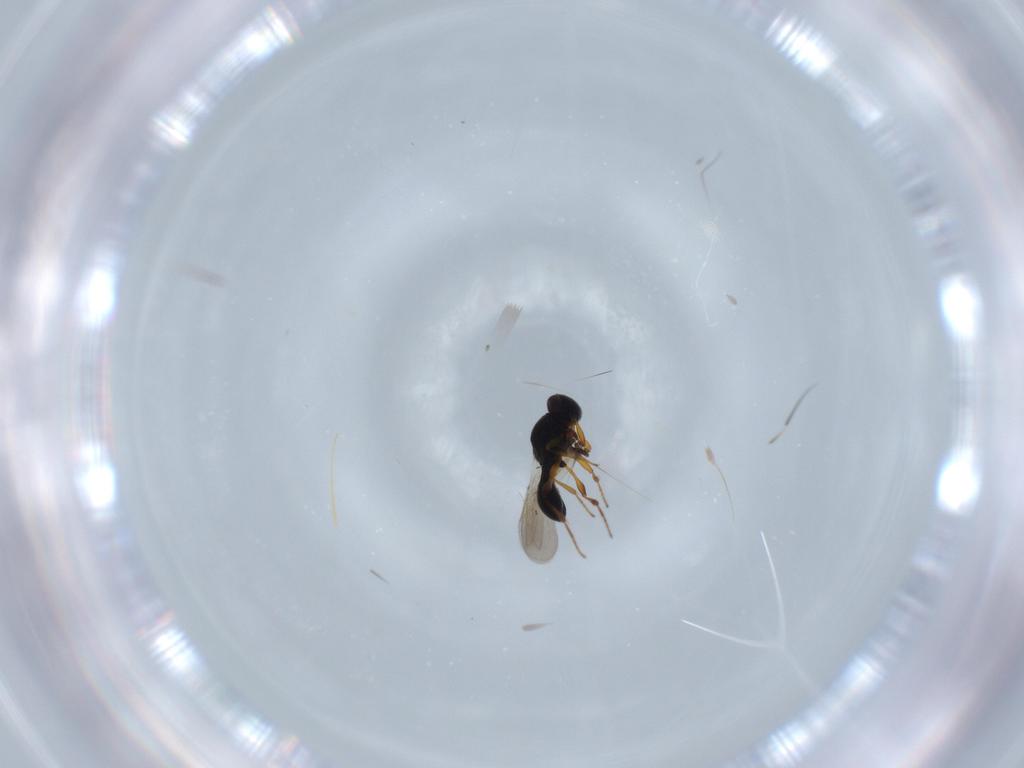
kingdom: Animalia
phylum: Arthropoda
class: Insecta
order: Hymenoptera
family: Platygastridae
